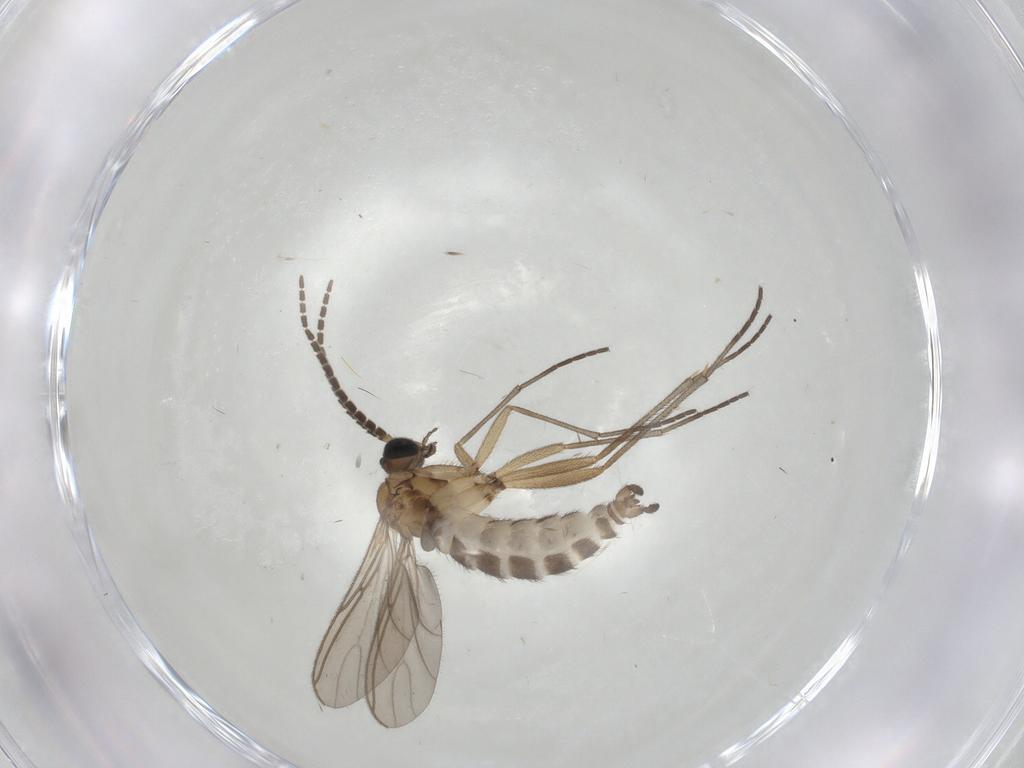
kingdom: Animalia
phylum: Arthropoda
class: Insecta
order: Diptera
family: Sciaridae
